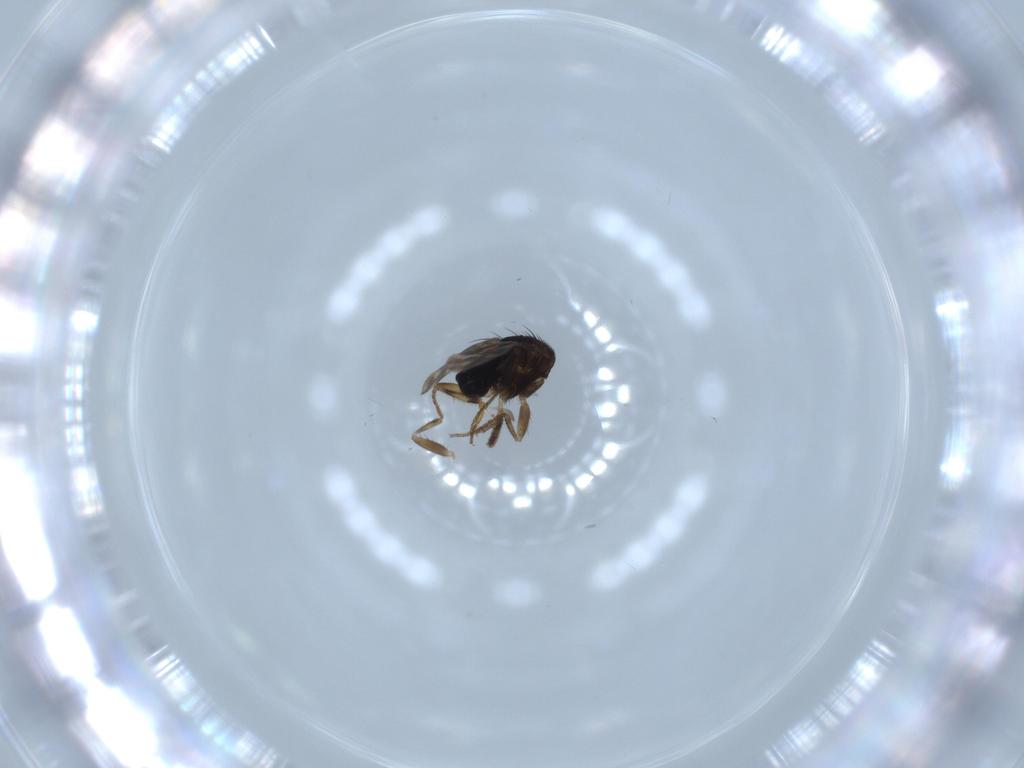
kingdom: Animalia
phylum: Arthropoda
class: Insecta
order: Diptera
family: Sphaeroceridae
